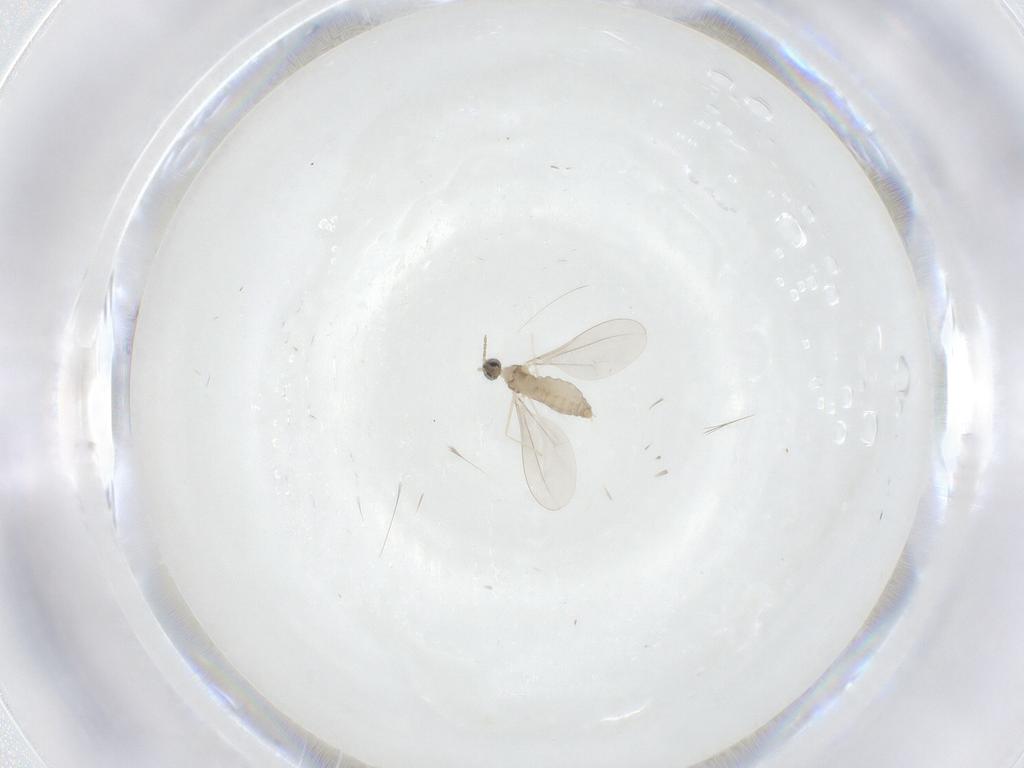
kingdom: Animalia
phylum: Arthropoda
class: Insecta
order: Diptera
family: Cecidomyiidae
